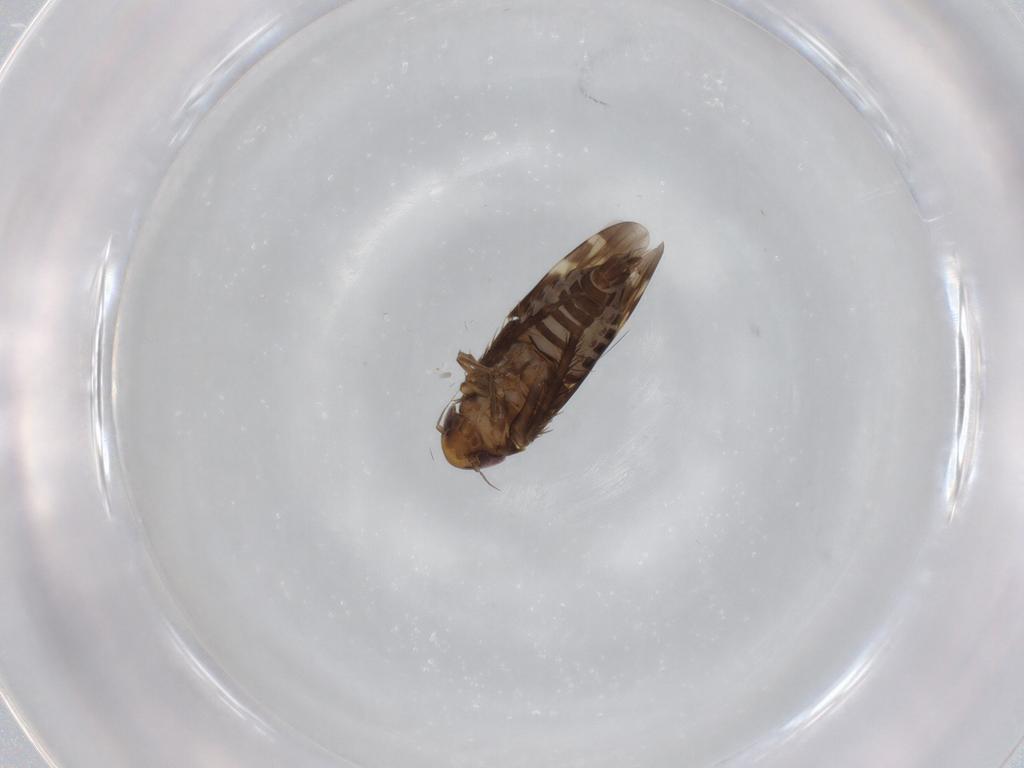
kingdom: Animalia
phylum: Arthropoda
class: Insecta
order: Hemiptera
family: Cicadellidae
